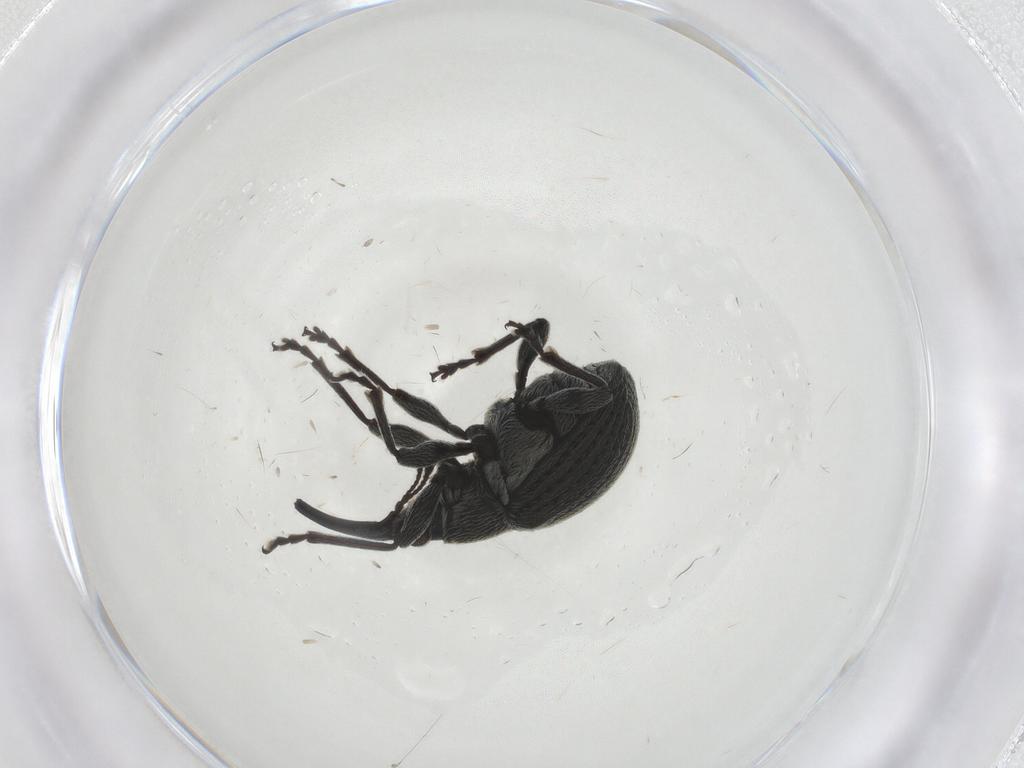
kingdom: Animalia
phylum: Arthropoda
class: Insecta
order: Coleoptera
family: Brentidae
